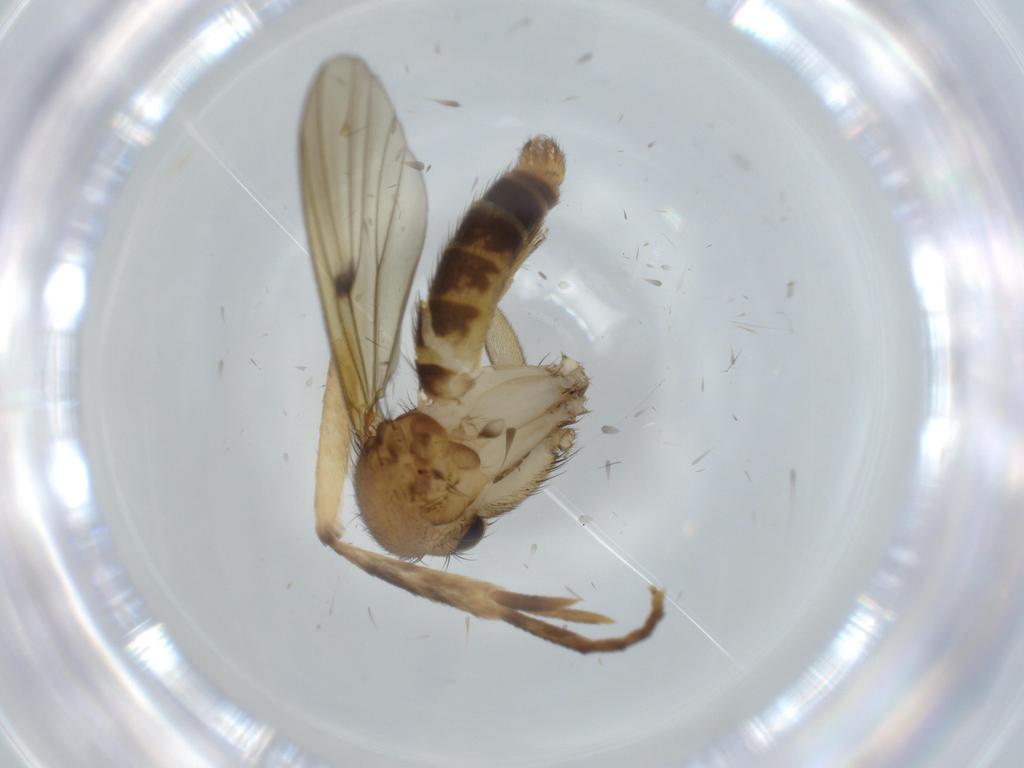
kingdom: Animalia
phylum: Arthropoda
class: Insecta
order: Diptera
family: Phoridae
